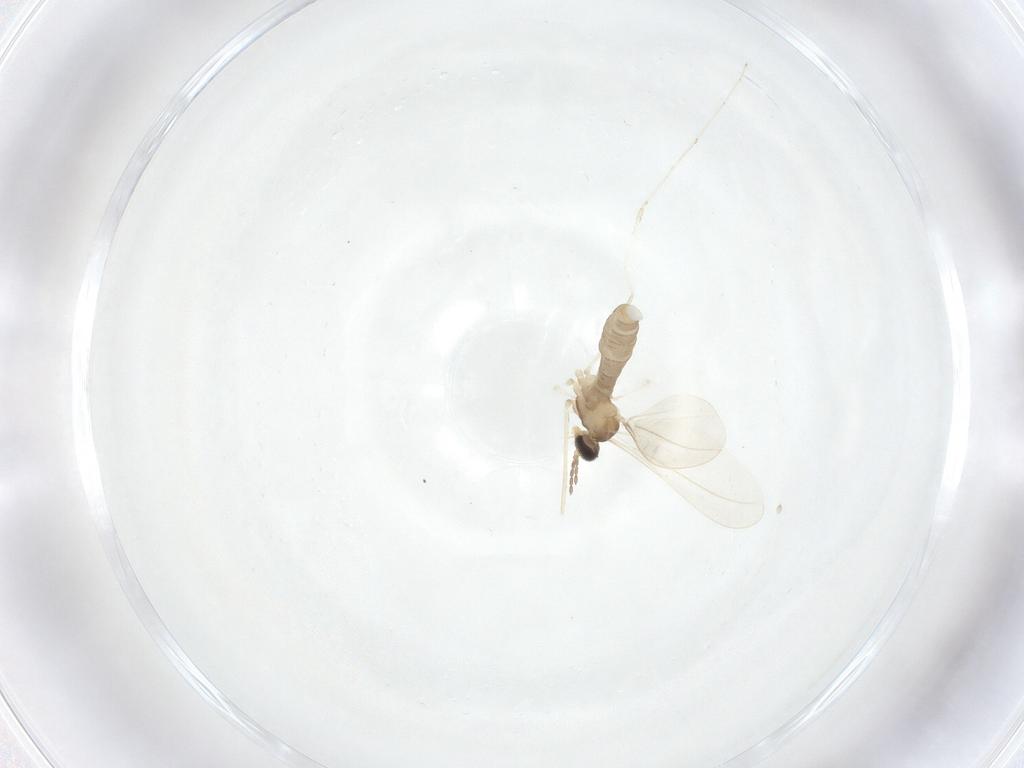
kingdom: Animalia
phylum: Arthropoda
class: Insecta
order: Diptera
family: Cecidomyiidae
